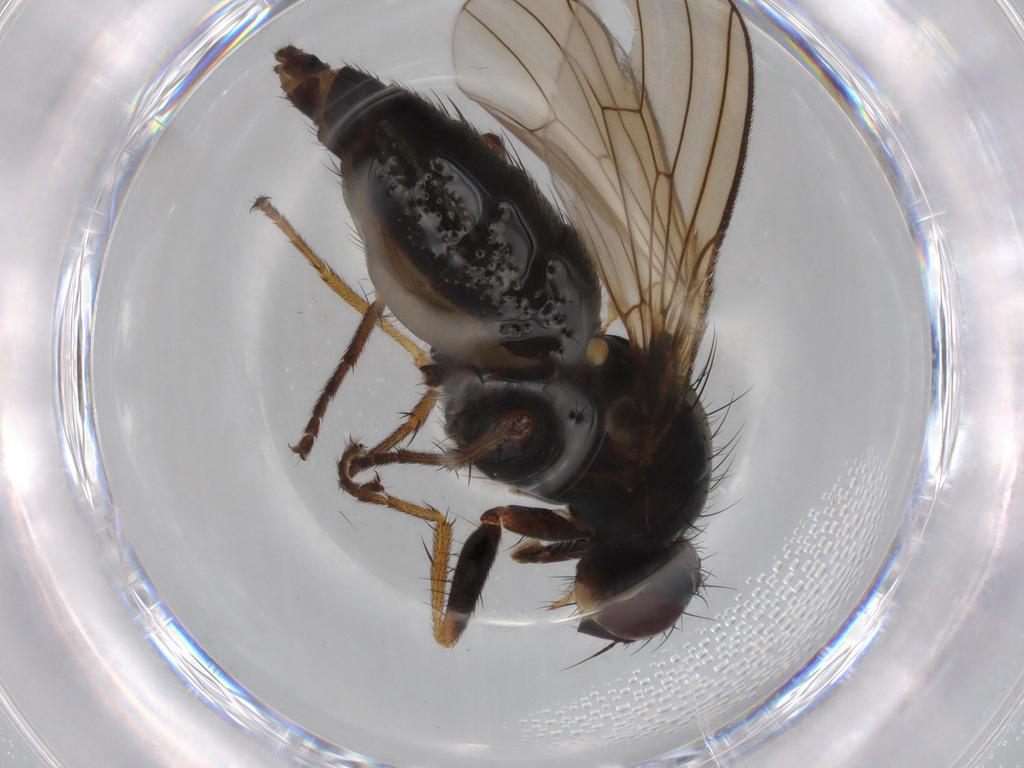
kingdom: Animalia
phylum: Arthropoda
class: Insecta
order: Diptera
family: Scathophagidae
